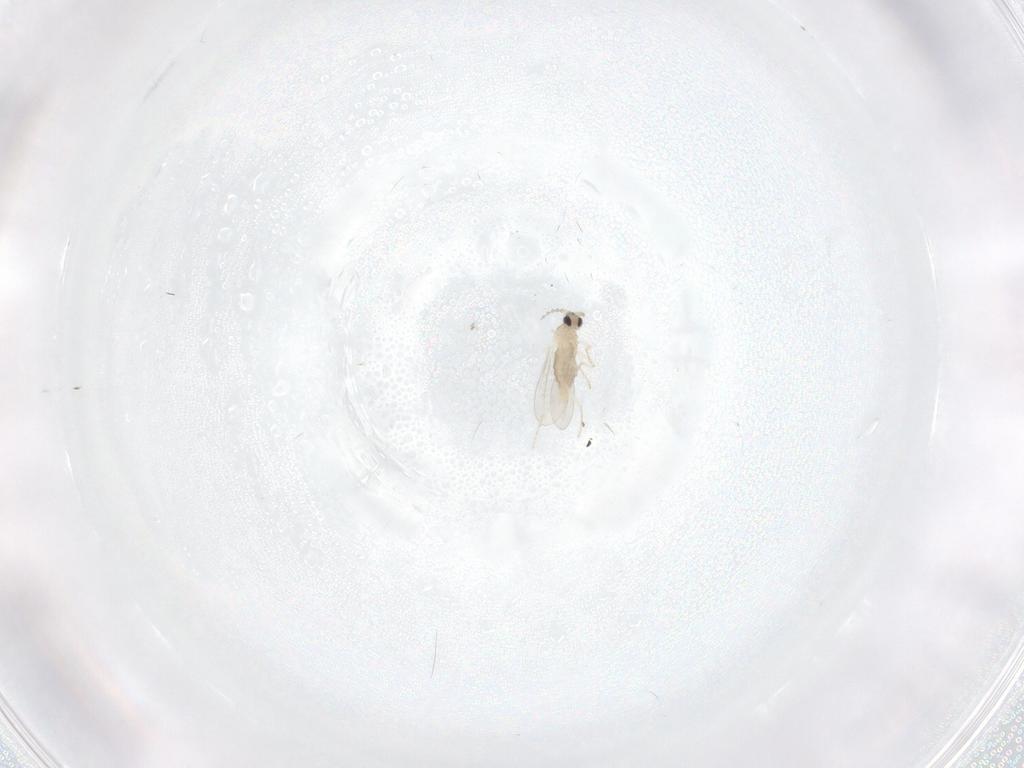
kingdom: Animalia
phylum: Arthropoda
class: Insecta
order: Diptera
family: Cecidomyiidae
